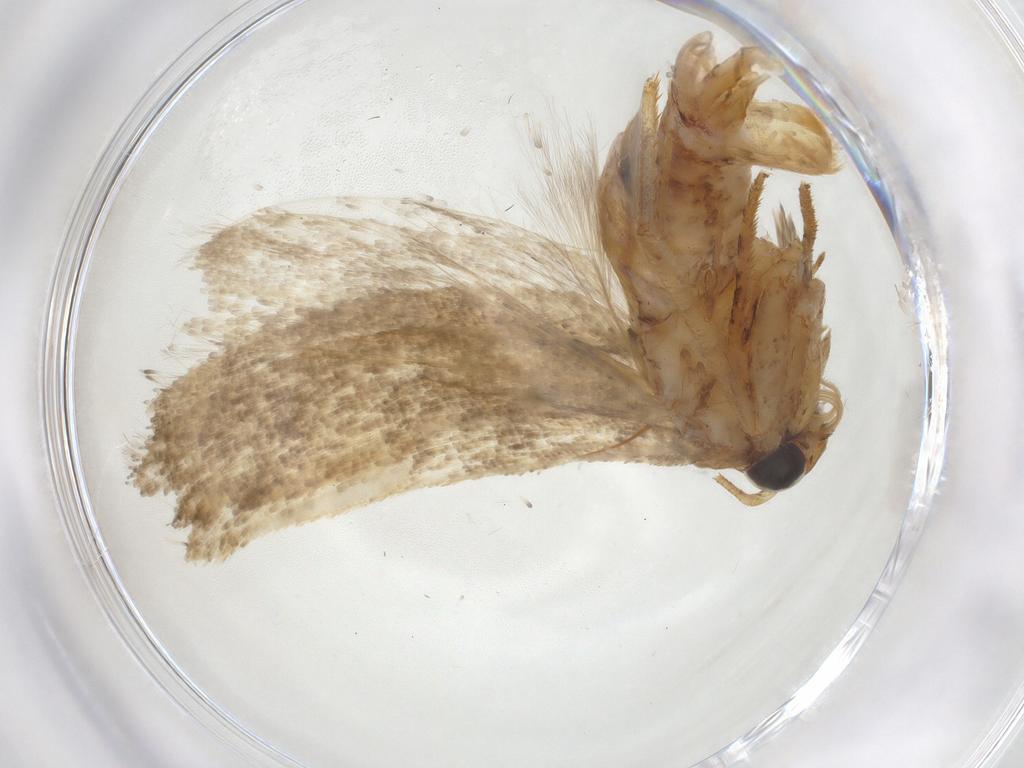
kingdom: Animalia
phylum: Arthropoda
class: Insecta
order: Lepidoptera
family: Gelechiidae
